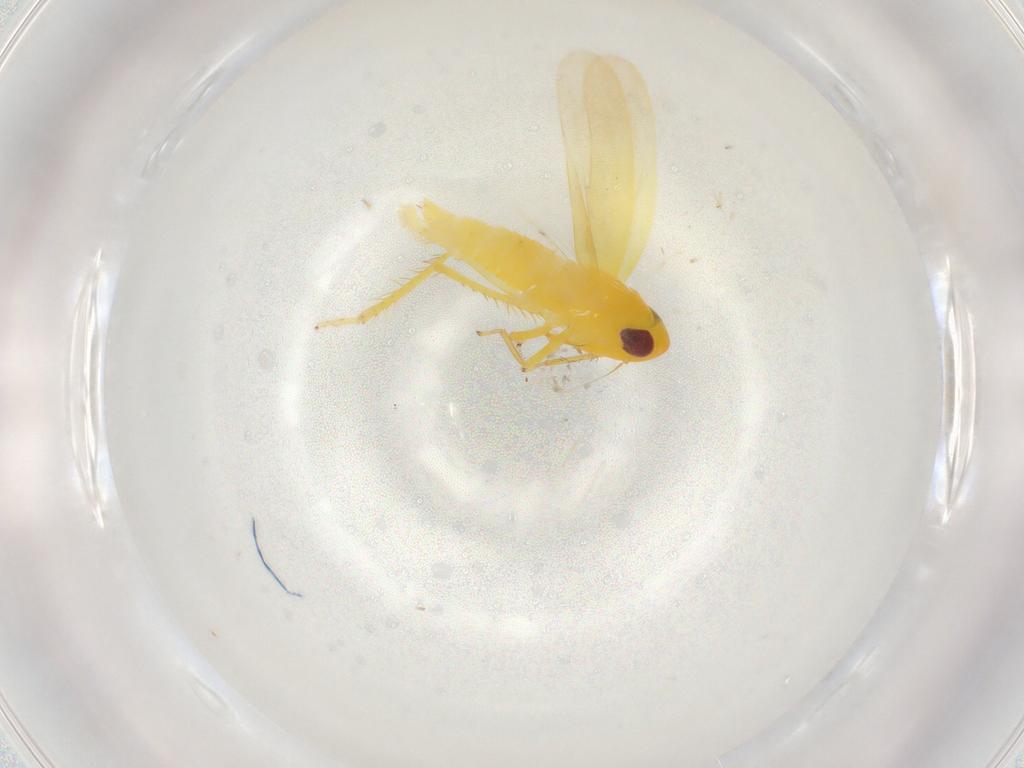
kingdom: Animalia
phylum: Arthropoda
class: Insecta
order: Hemiptera
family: Cicadellidae
